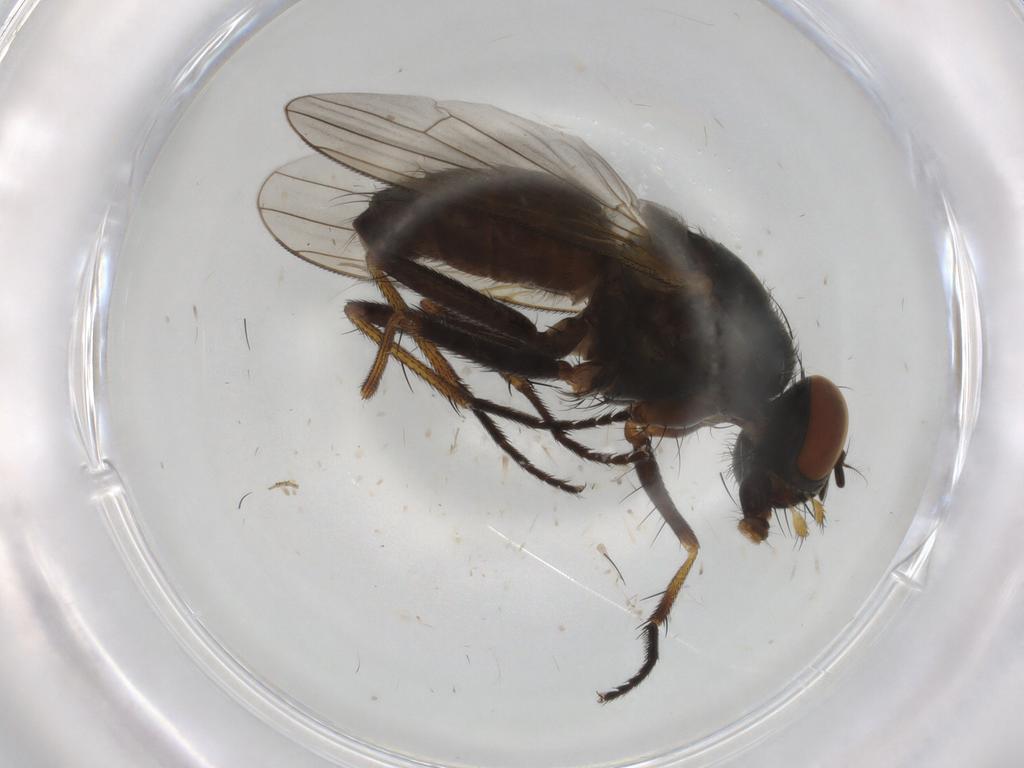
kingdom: Animalia
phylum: Arthropoda
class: Insecta
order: Diptera
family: Muscidae
